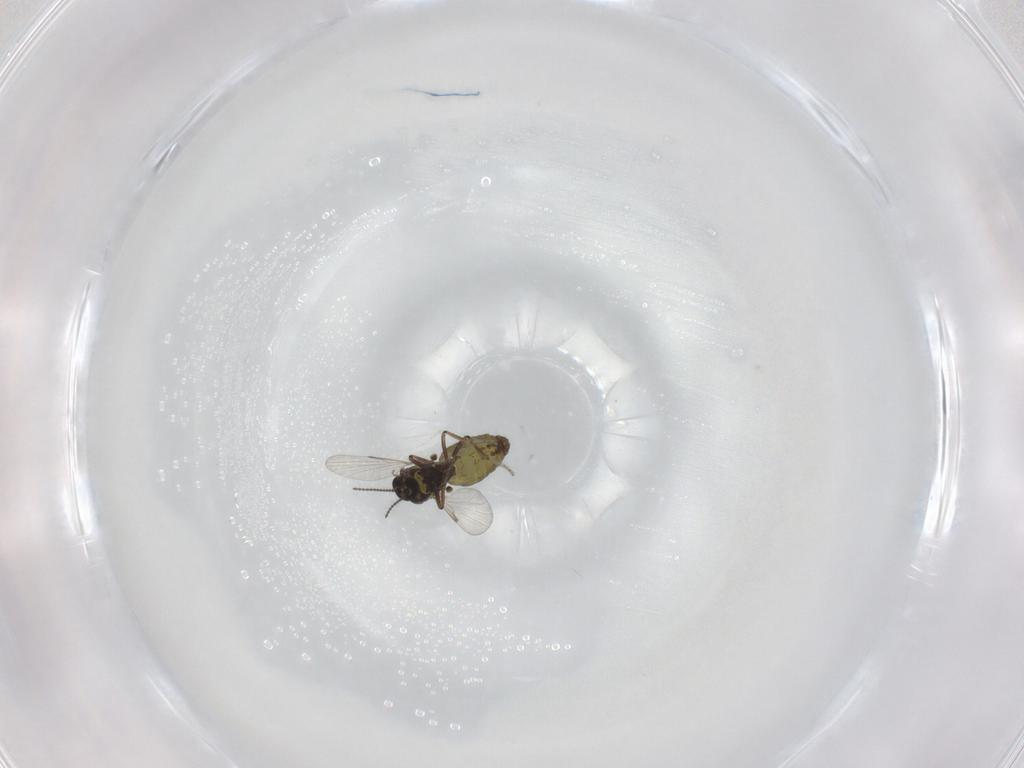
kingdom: Animalia
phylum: Arthropoda
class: Insecta
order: Diptera
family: Ceratopogonidae
